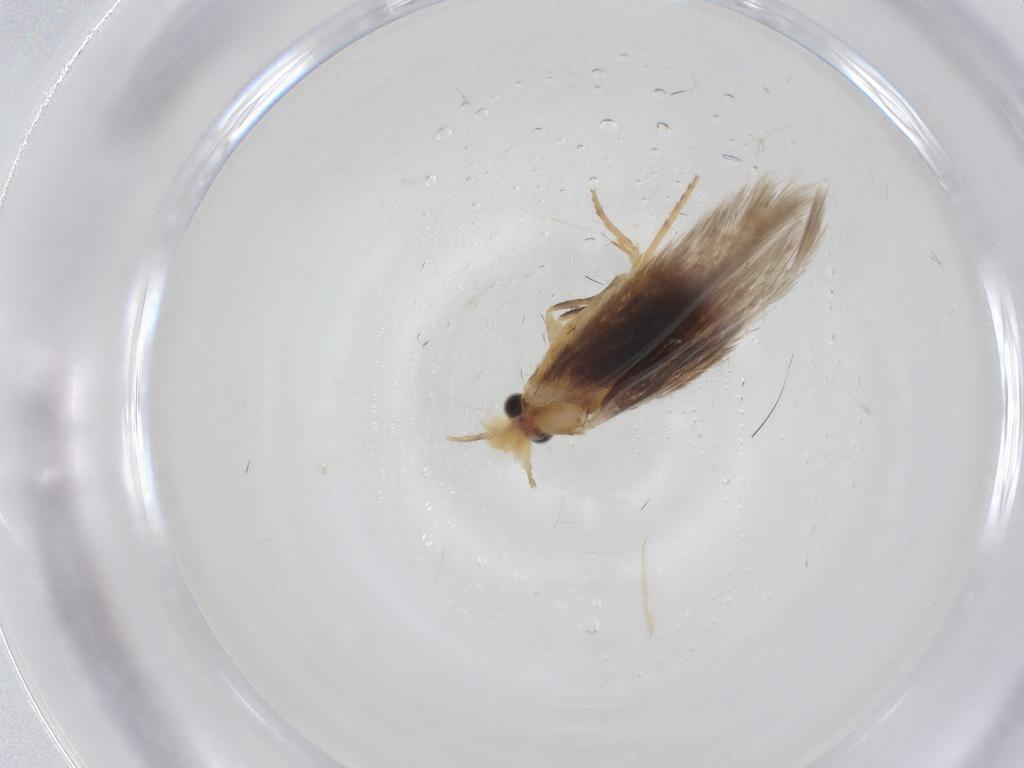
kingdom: Animalia
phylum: Arthropoda
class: Insecta
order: Lepidoptera
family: Nepticulidae
